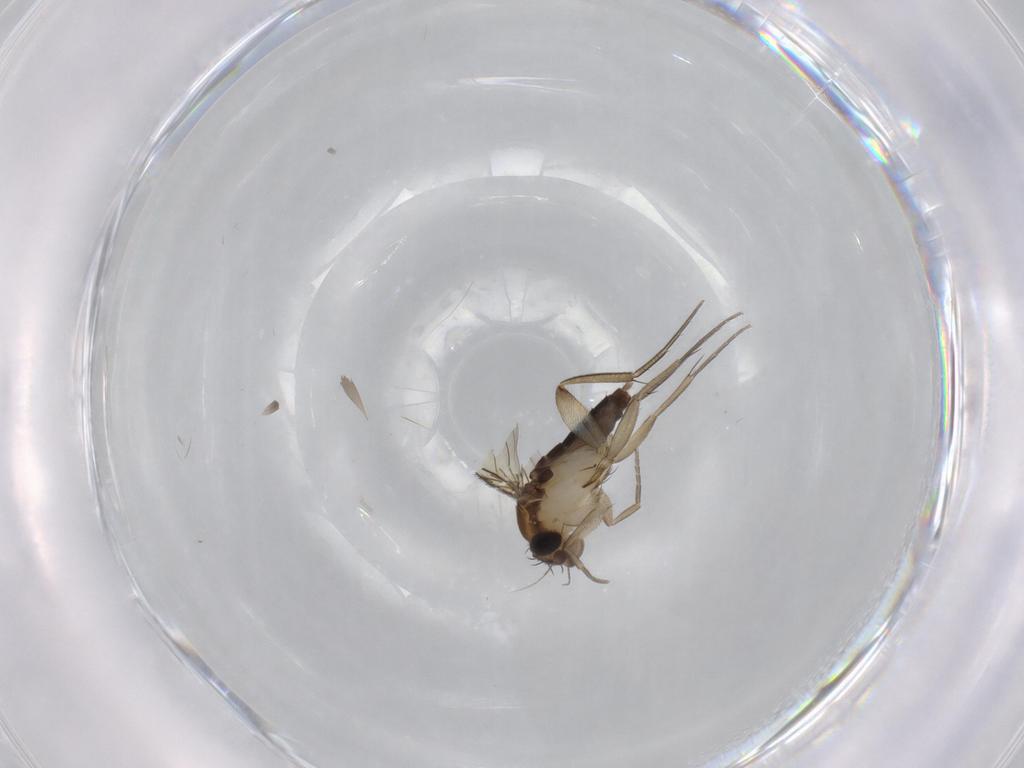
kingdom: Animalia
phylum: Arthropoda
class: Insecta
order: Diptera
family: Phoridae
